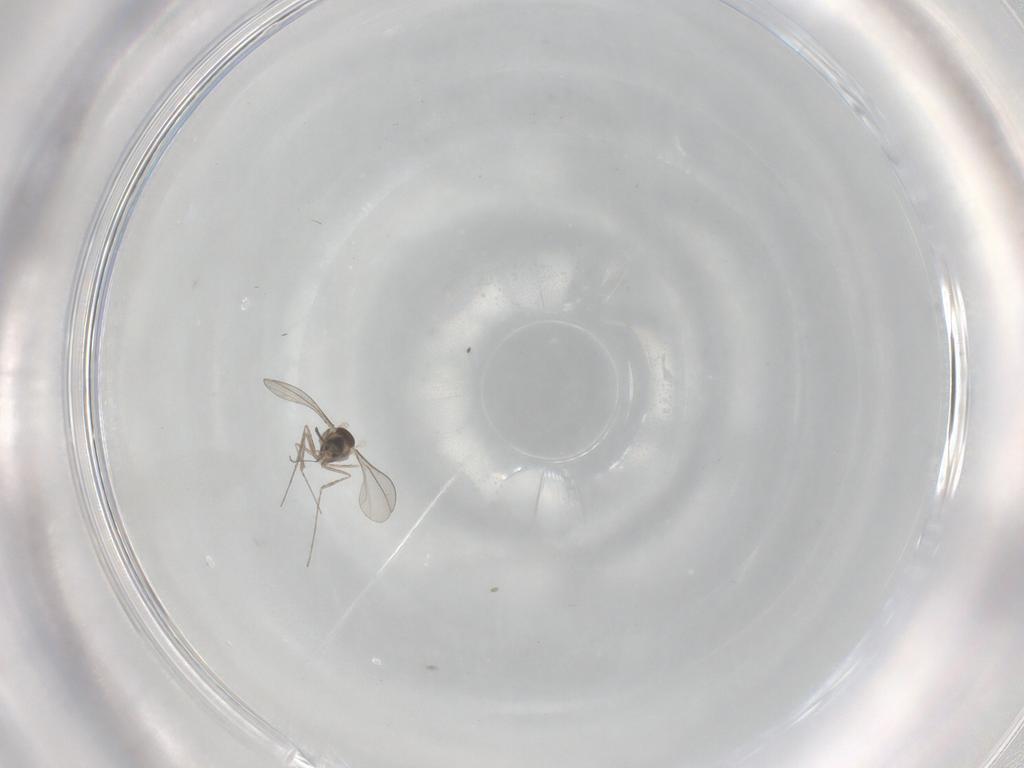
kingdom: Animalia
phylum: Arthropoda
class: Insecta
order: Diptera
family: Cecidomyiidae
